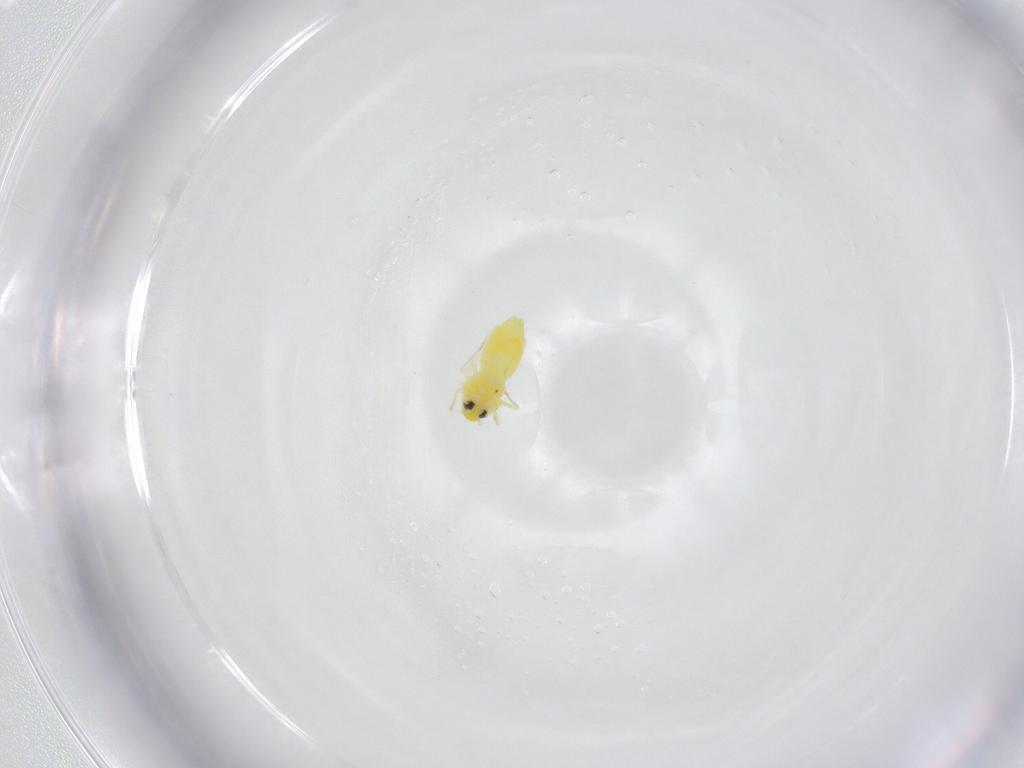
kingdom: Animalia
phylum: Arthropoda
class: Insecta
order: Hemiptera
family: Aleyrodidae
